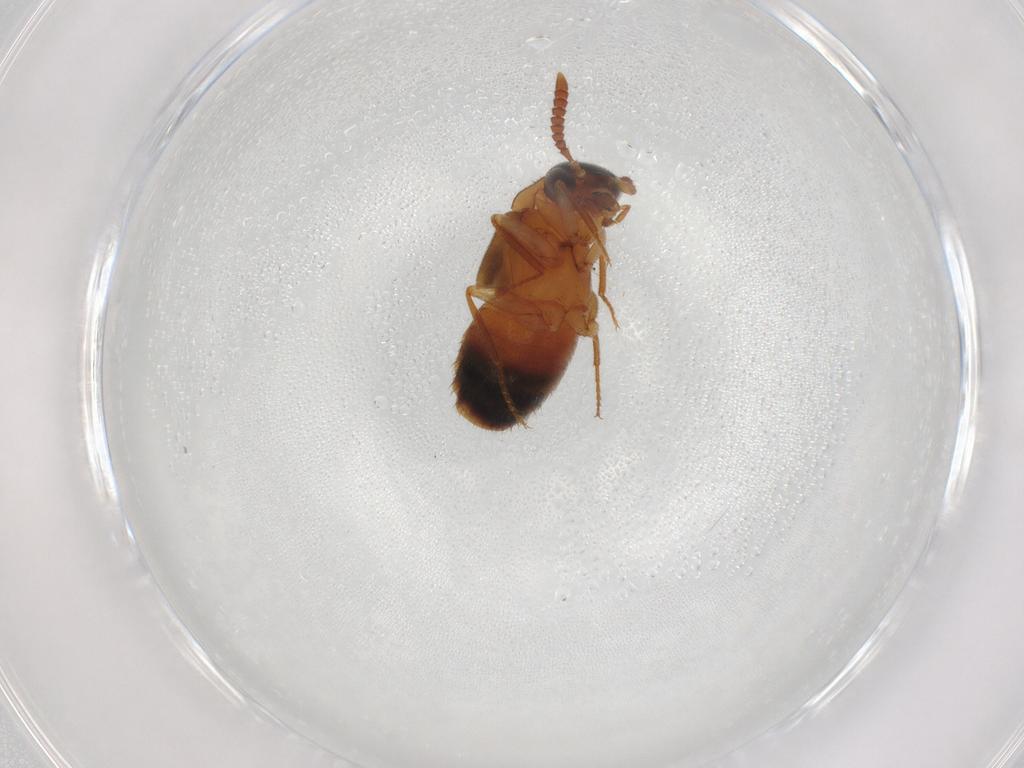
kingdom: Animalia
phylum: Arthropoda
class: Insecta
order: Coleoptera
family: Staphylinidae
